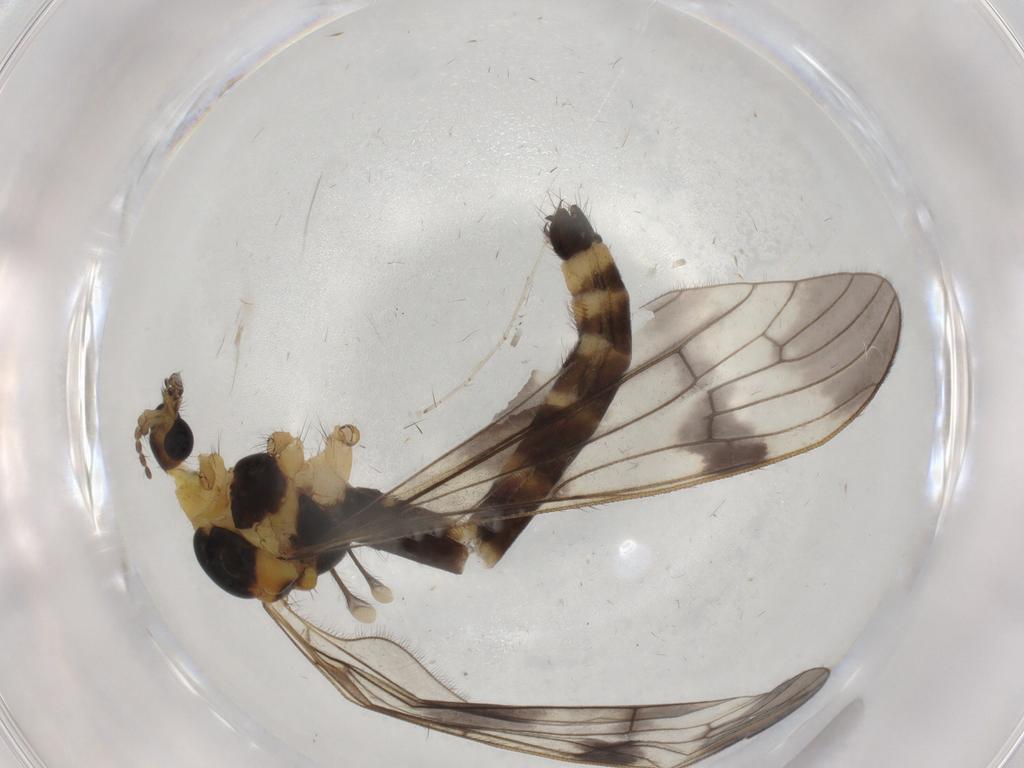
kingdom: Animalia
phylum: Arthropoda
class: Insecta
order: Diptera
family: Limoniidae
